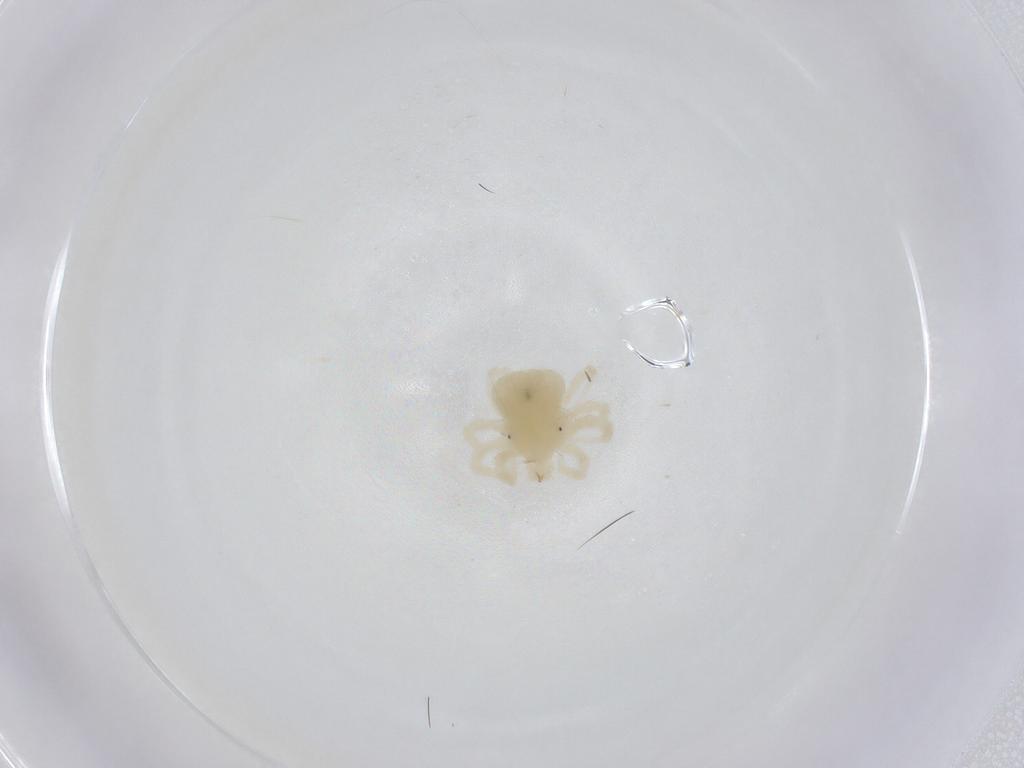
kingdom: Animalia
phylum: Arthropoda
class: Arachnida
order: Trombidiformes
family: Anystidae
